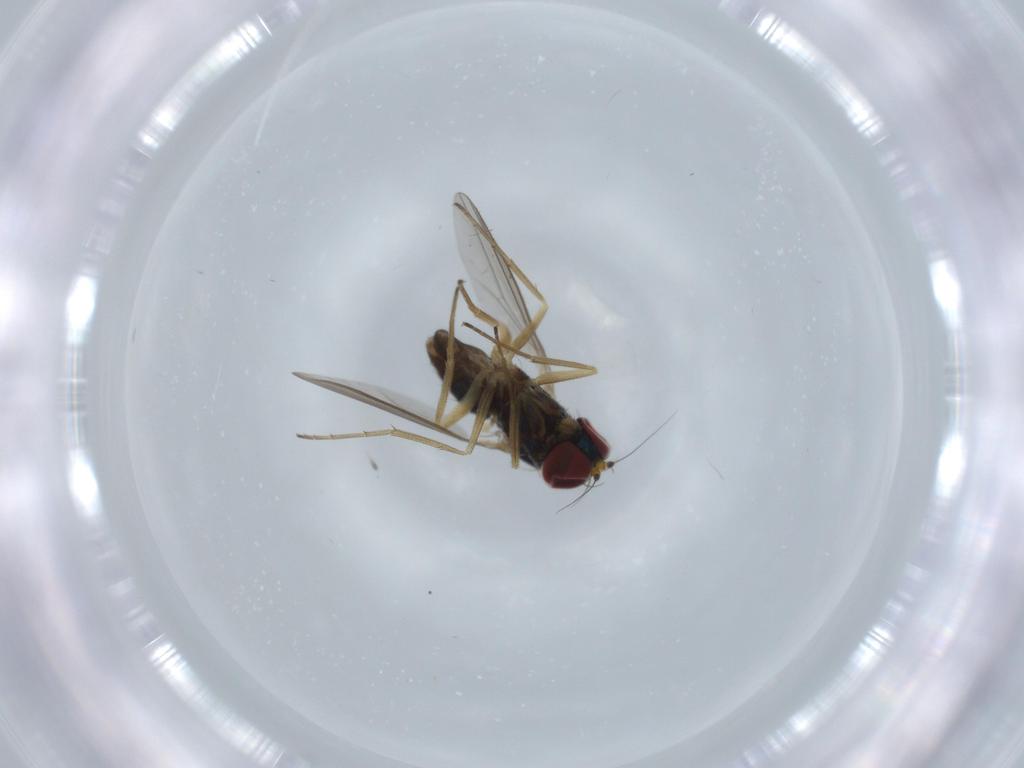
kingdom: Animalia
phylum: Arthropoda
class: Insecta
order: Diptera
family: Dolichopodidae
